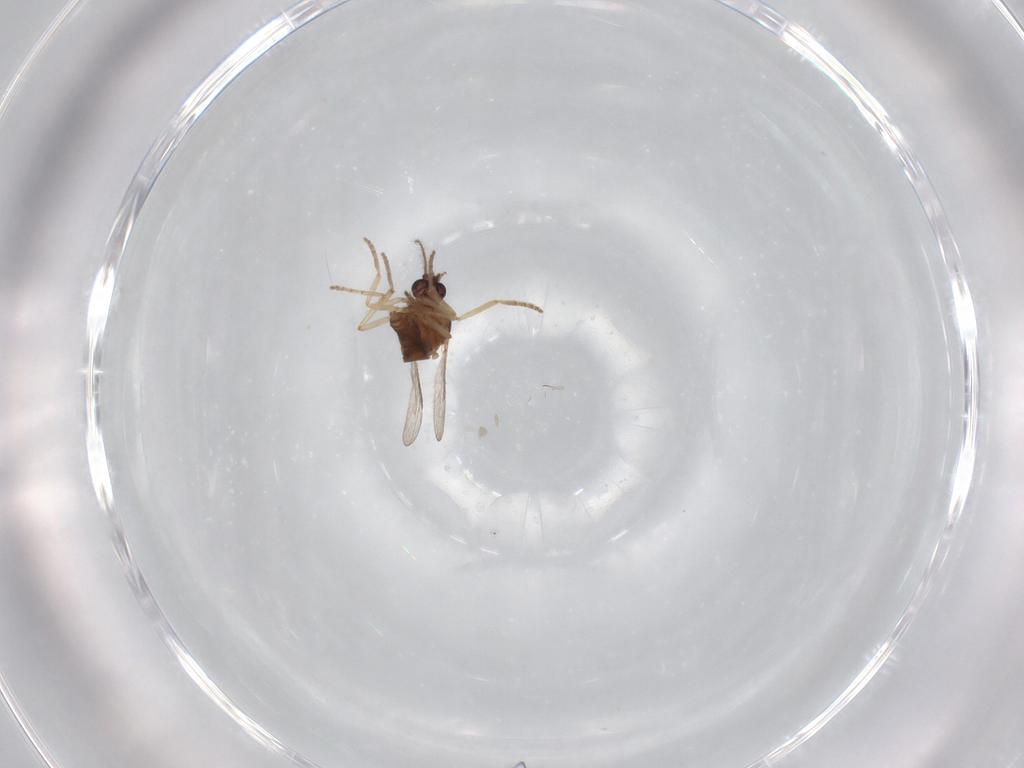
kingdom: Animalia
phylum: Arthropoda
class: Insecta
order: Diptera
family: Ceratopogonidae
